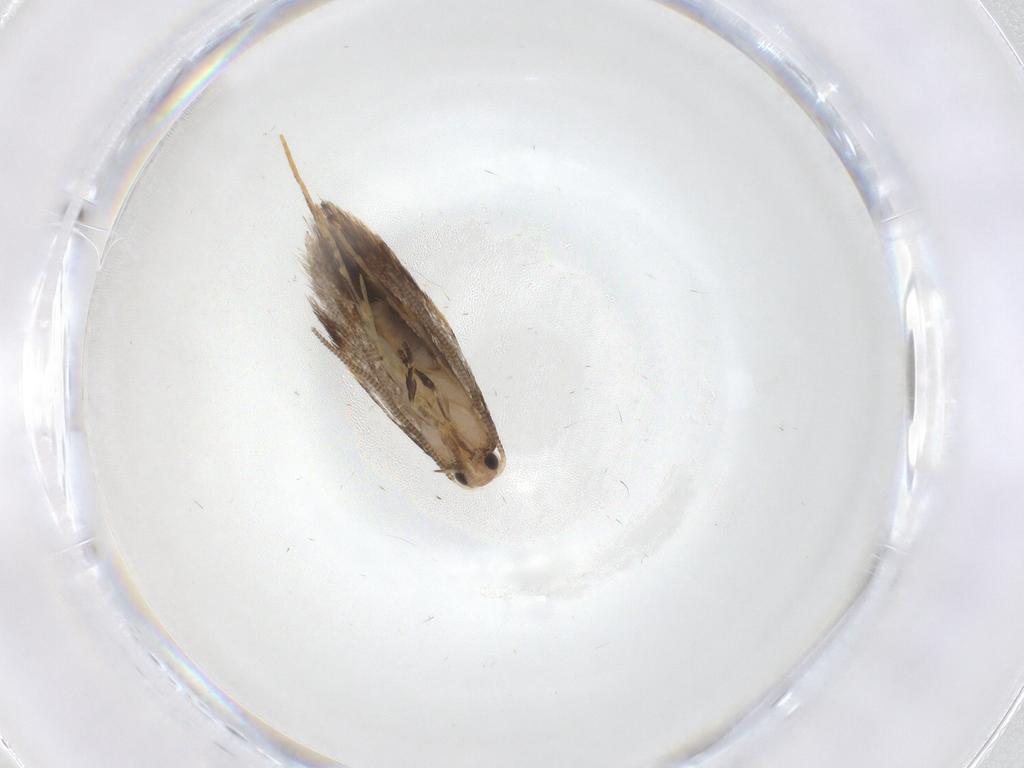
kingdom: Animalia
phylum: Arthropoda
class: Insecta
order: Lepidoptera
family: Tineidae
